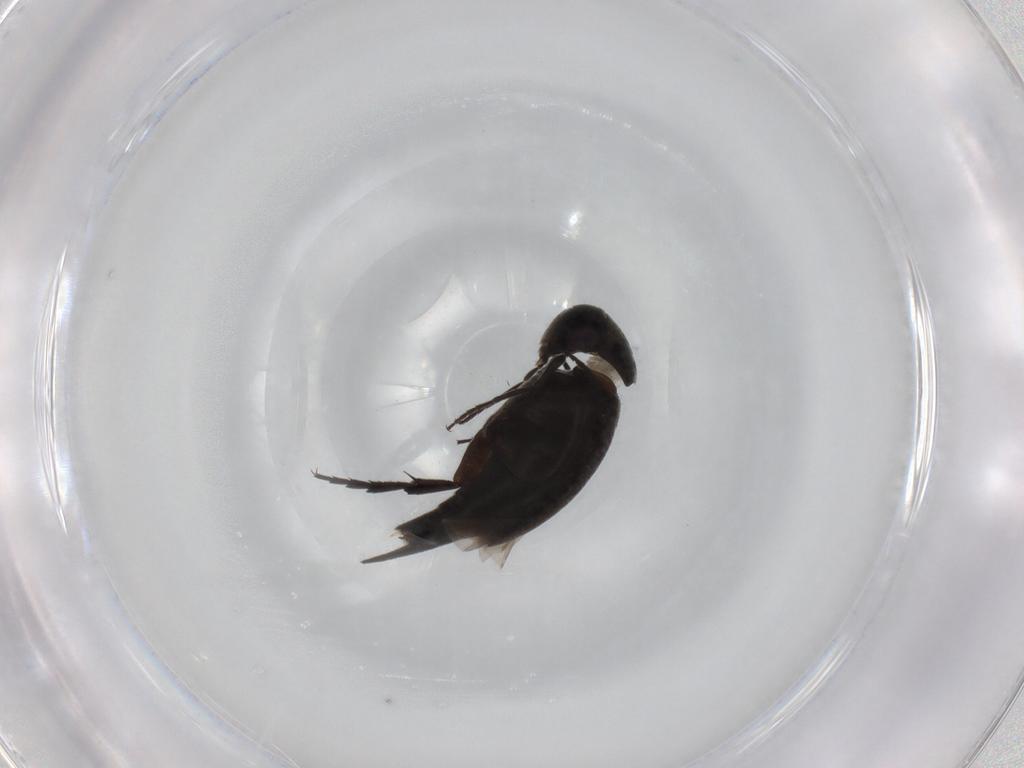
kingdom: Animalia
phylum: Arthropoda
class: Insecta
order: Coleoptera
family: Mordellidae
